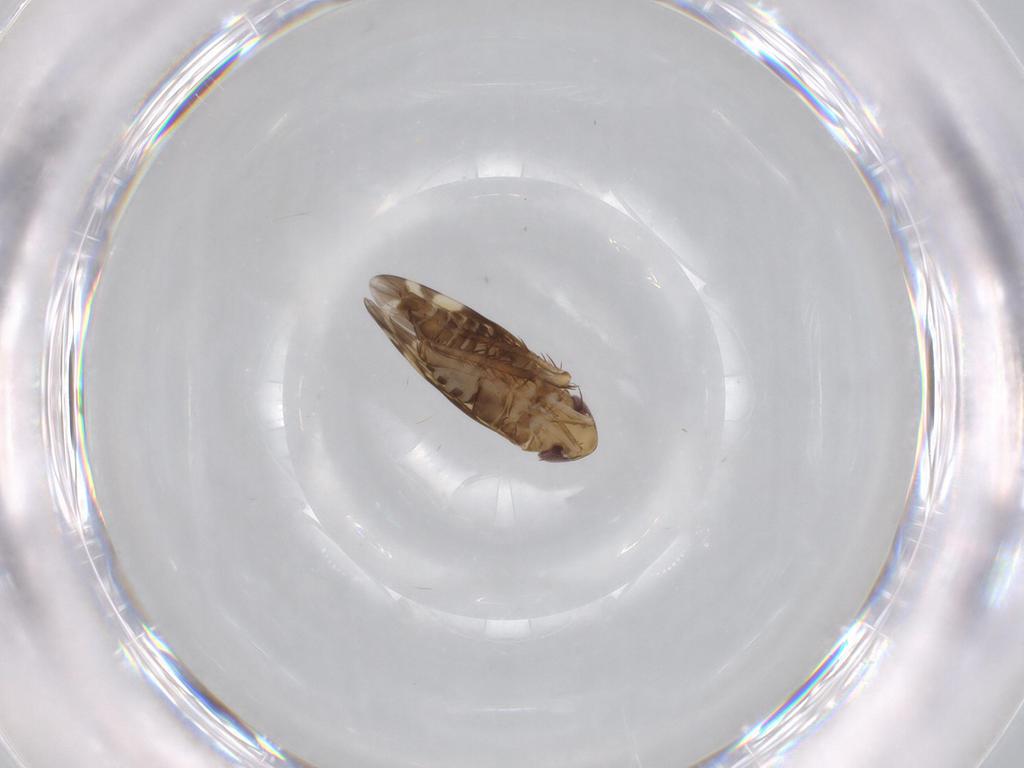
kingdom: Animalia
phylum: Arthropoda
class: Insecta
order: Hemiptera
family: Cicadellidae
